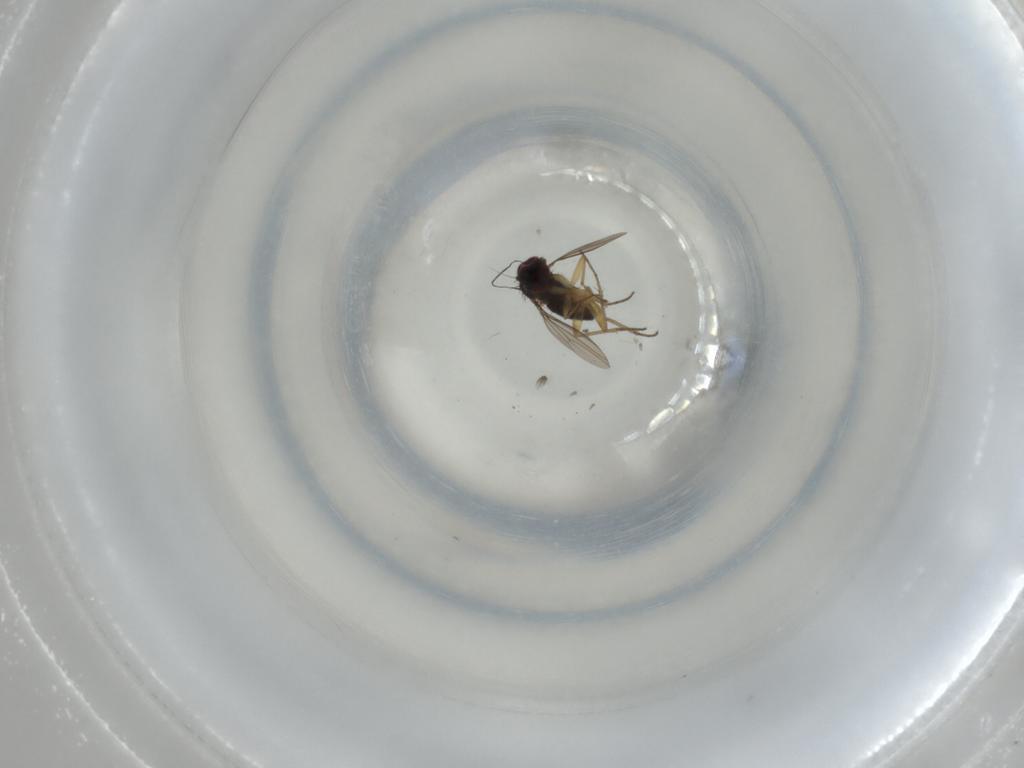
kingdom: Animalia
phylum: Arthropoda
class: Insecta
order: Diptera
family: Dolichopodidae
